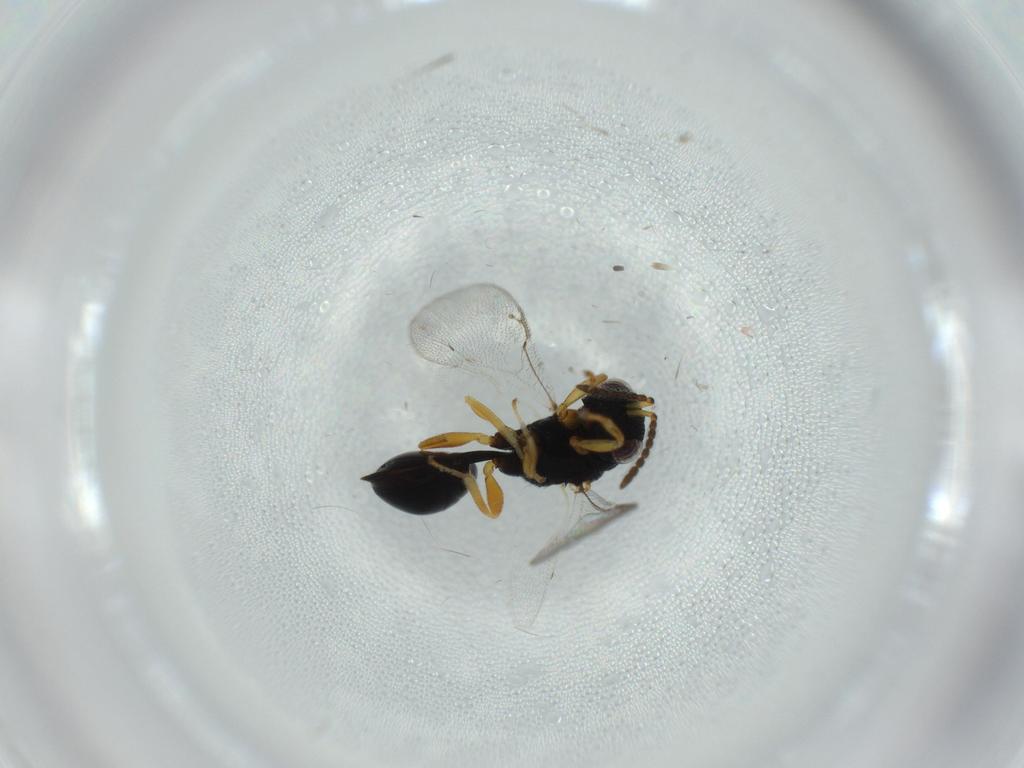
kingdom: Animalia
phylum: Arthropoda
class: Insecta
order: Hymenoptera
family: Eurytomidae
